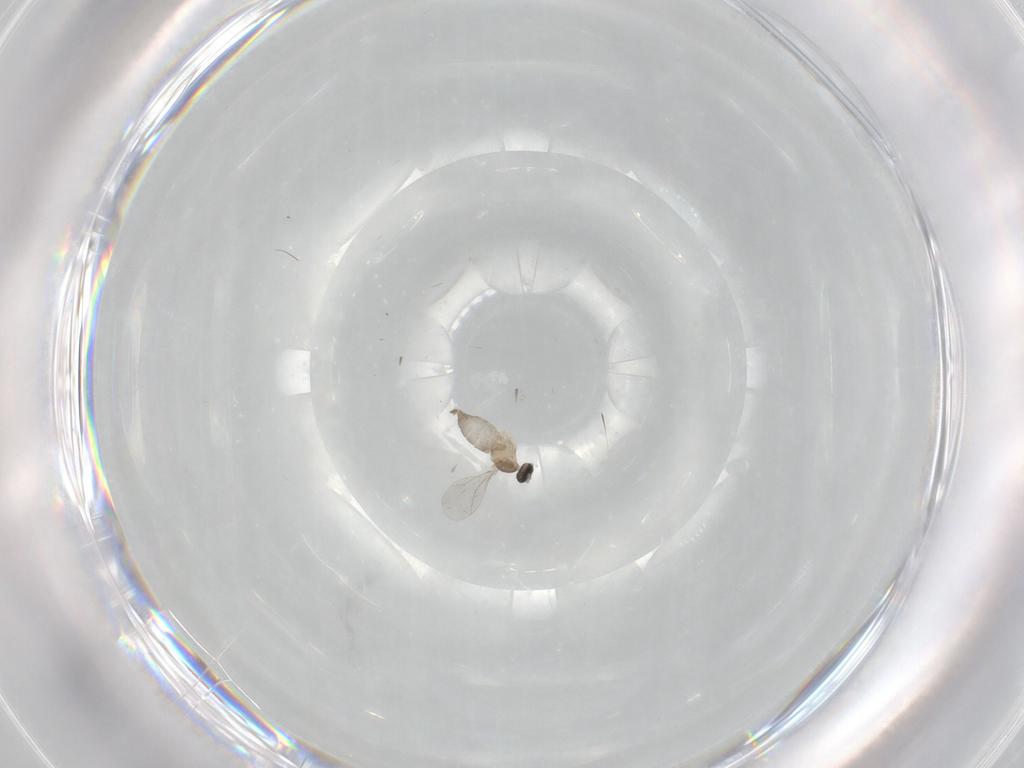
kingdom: Animalia
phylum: Arthropoda
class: Insecta
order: Diptera
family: Cecidomyiidae
